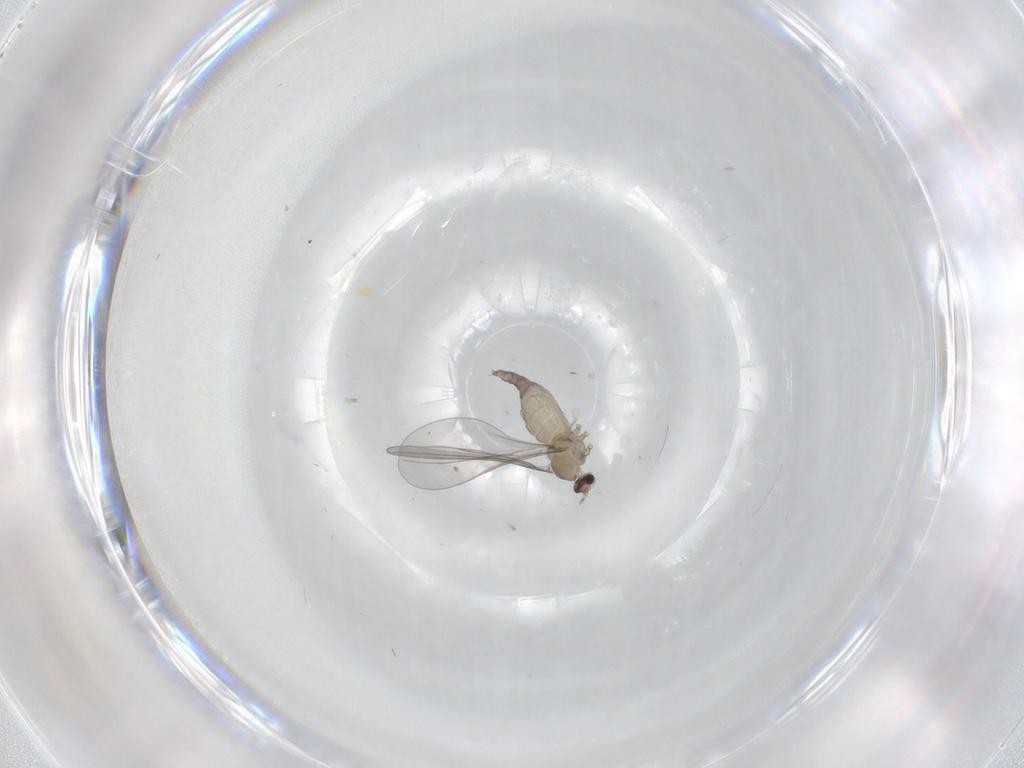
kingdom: Animalia
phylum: Arthropoda
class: Insecta
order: Diptera
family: Cecidomyiidae
